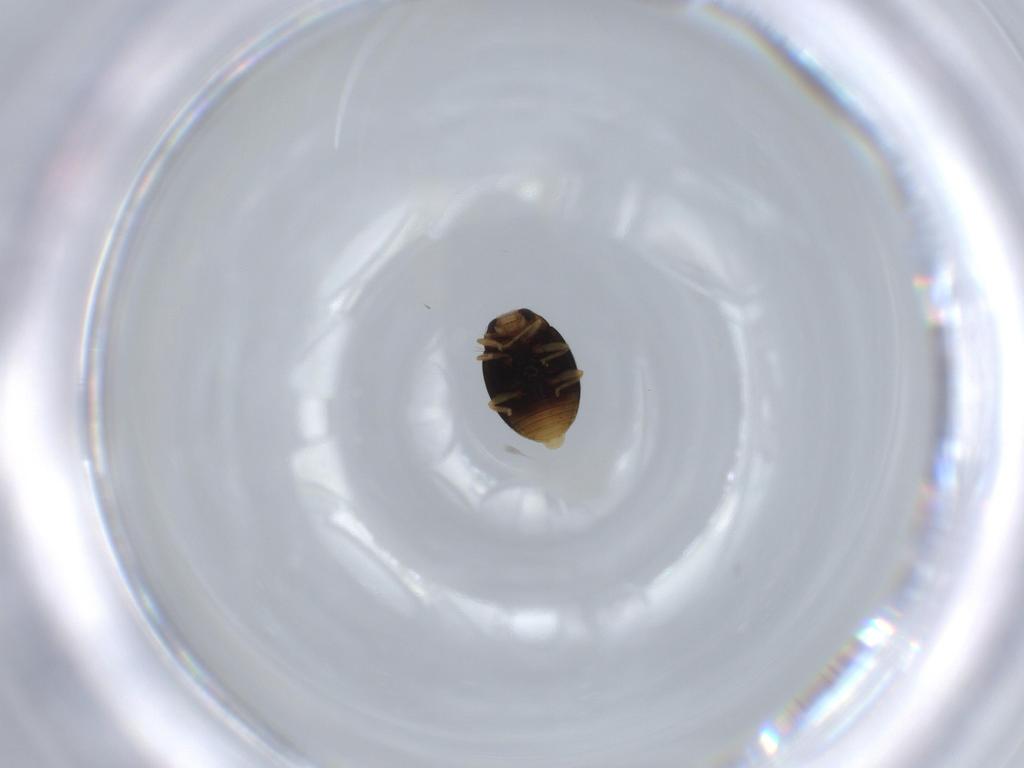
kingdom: Animalia
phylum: Arthropoda
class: Insecta
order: Coleoptera
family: Coccinellidae
